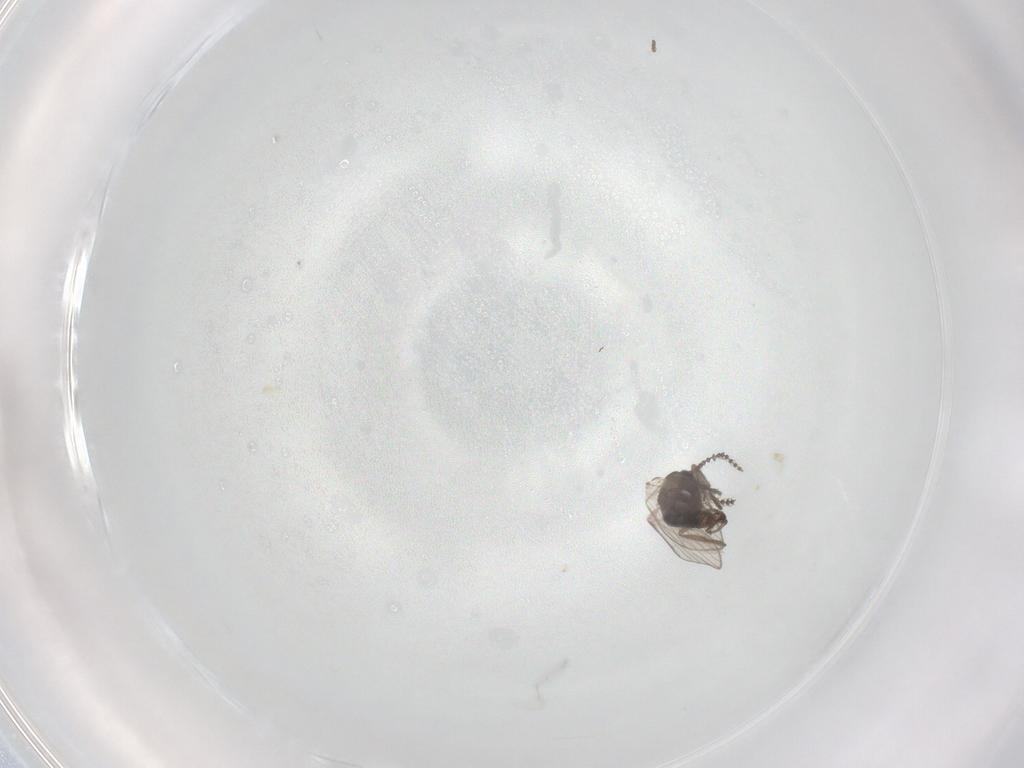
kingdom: Animalia
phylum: Arthropoda
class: Insecta
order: Diptera
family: Psychodidae
